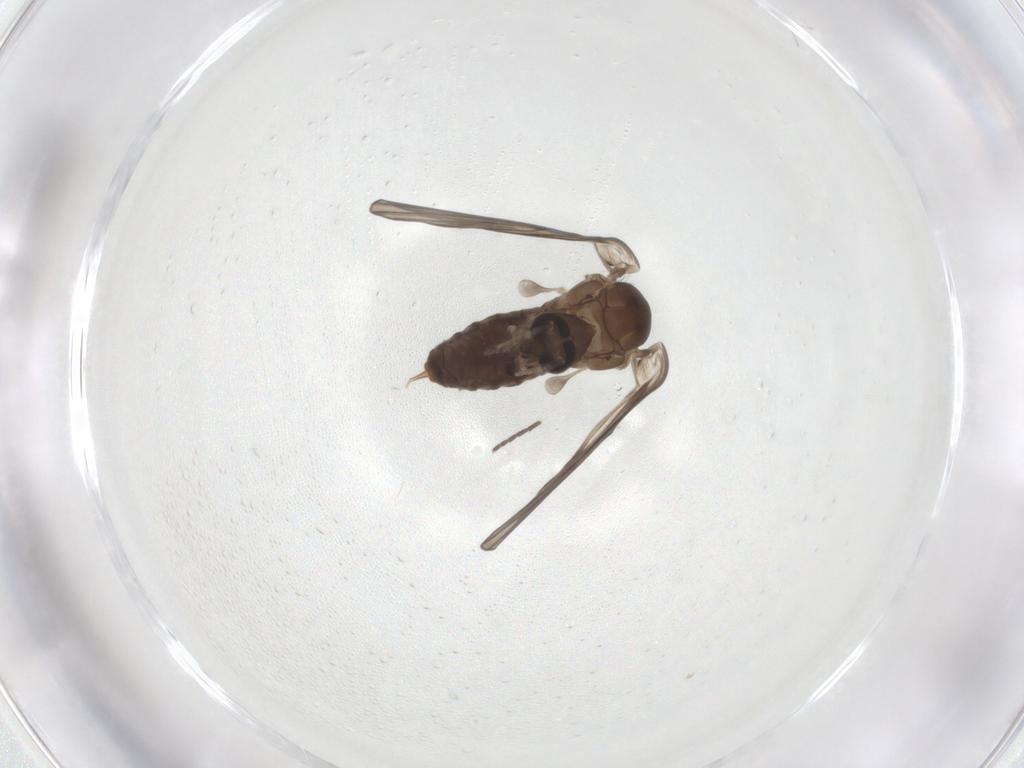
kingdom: Animalia
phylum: Arthropoda
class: Insecta
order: Diptera
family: Psychodidae
